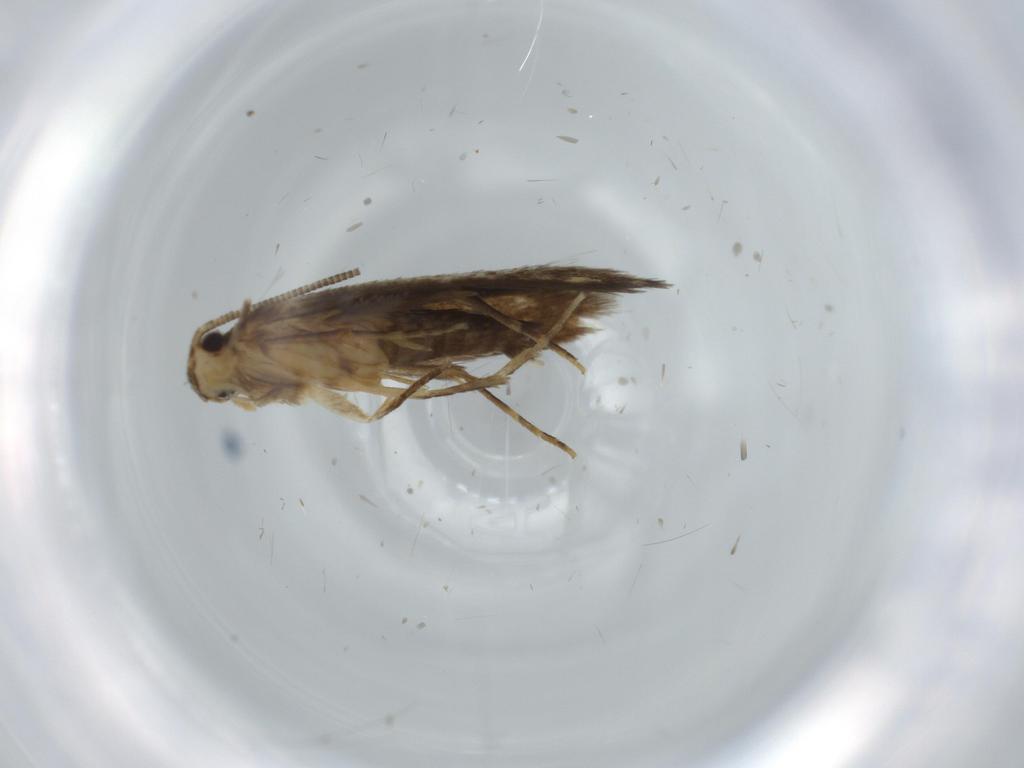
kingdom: Animalia
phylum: Arthropoda
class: Insecta
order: Lepidoptera
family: Tineidae
